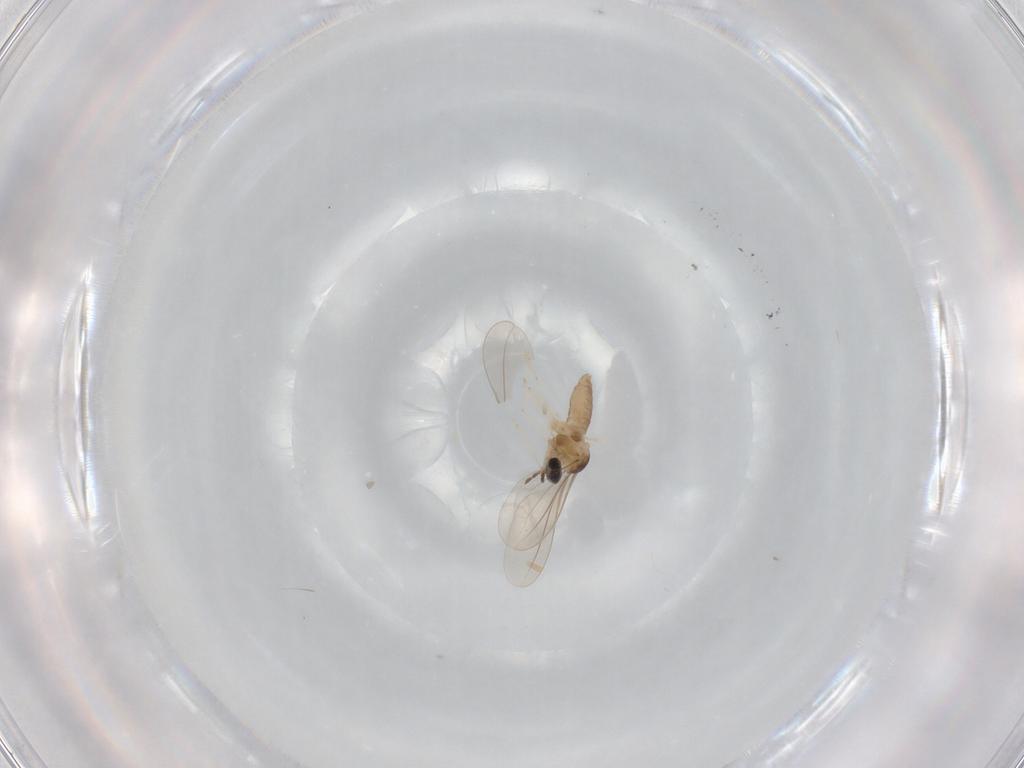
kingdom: Animalia
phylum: Arthropoda
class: Insecta
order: Diptera
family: Cecidomyiidae
